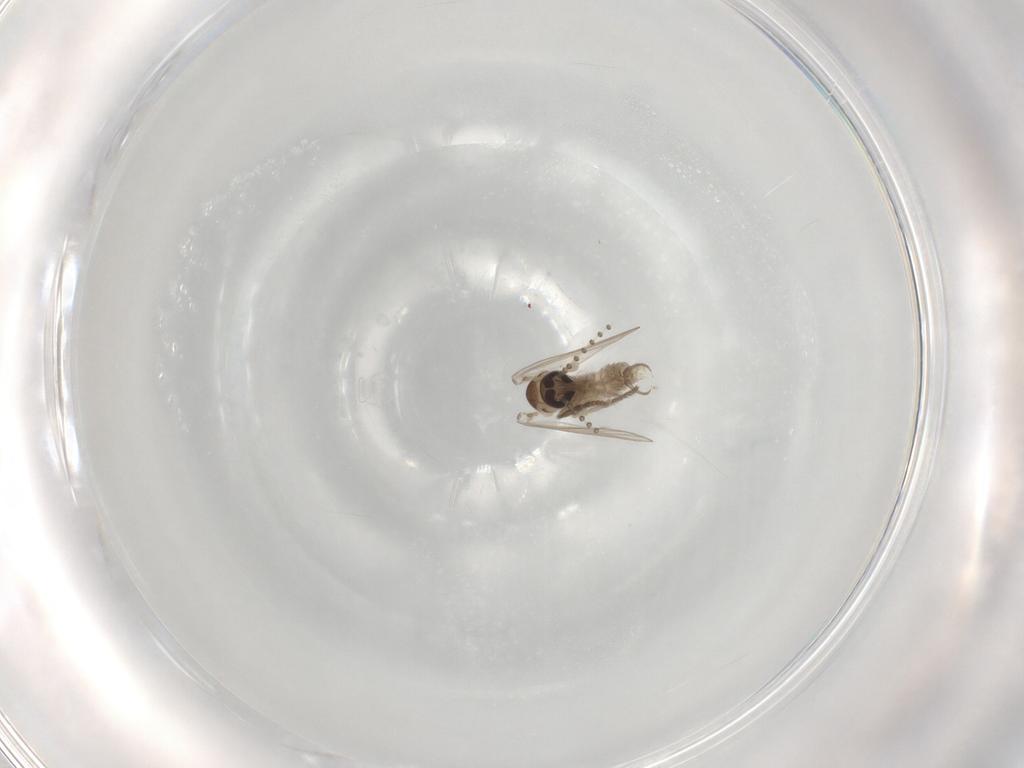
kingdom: Animalia
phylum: Arthropoda
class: Insecta
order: Diptera
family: Psychodidae
